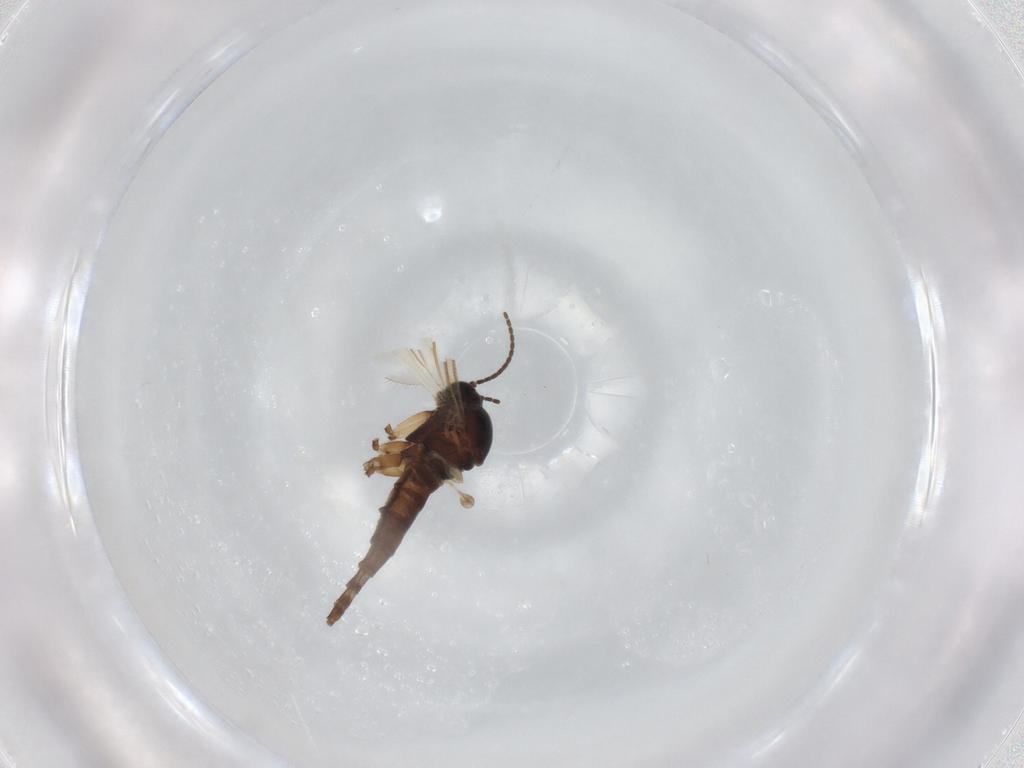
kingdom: Animalia
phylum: Arthropoda
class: Insecta
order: Diptera
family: Sciaridae
